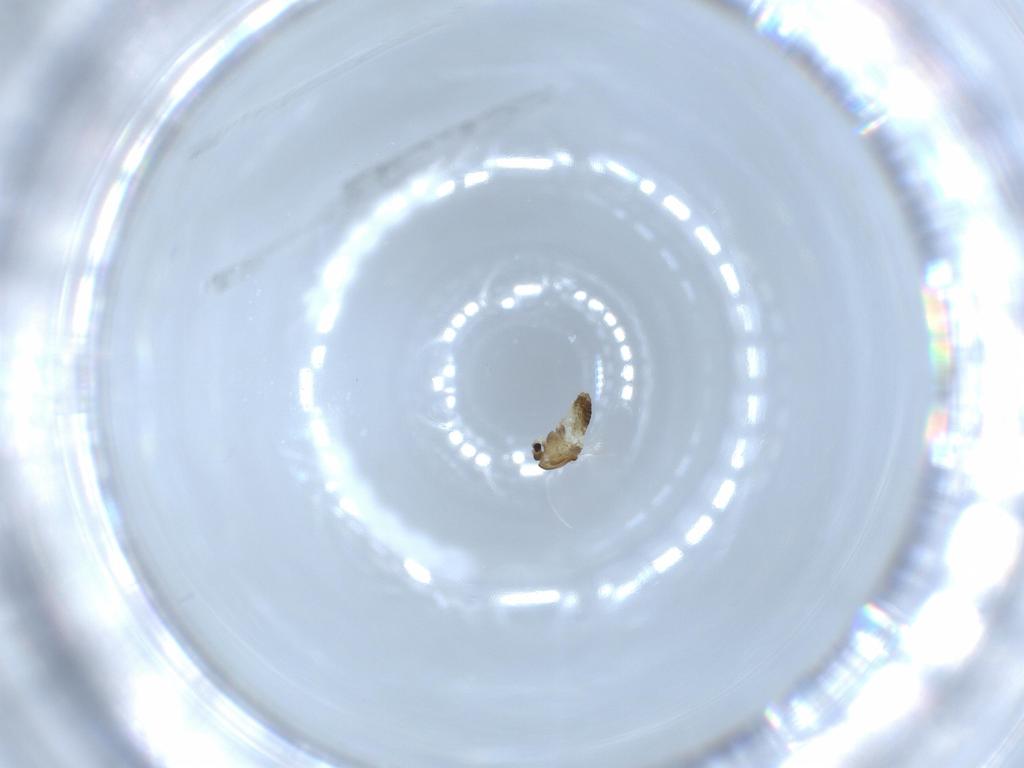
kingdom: Animalia
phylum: Arthropoda
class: Insecta
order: Diptera
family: Chironomidae
